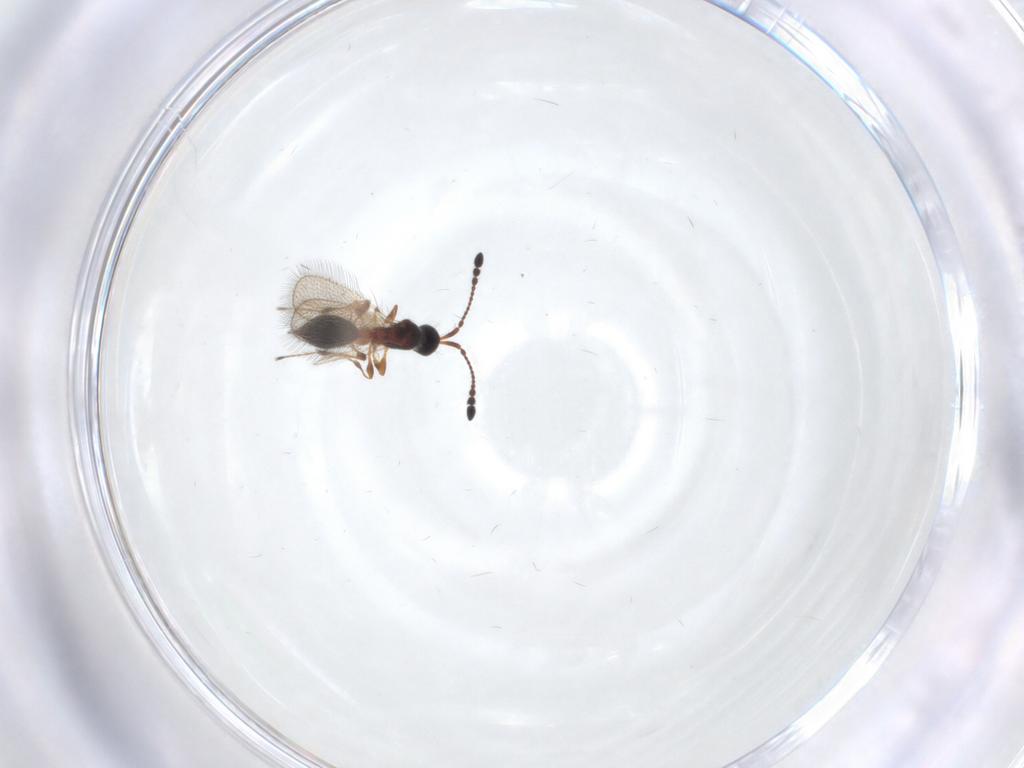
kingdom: Animalia
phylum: Arthropoda
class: Insecta
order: Hymenoptera
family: Diapriidae
